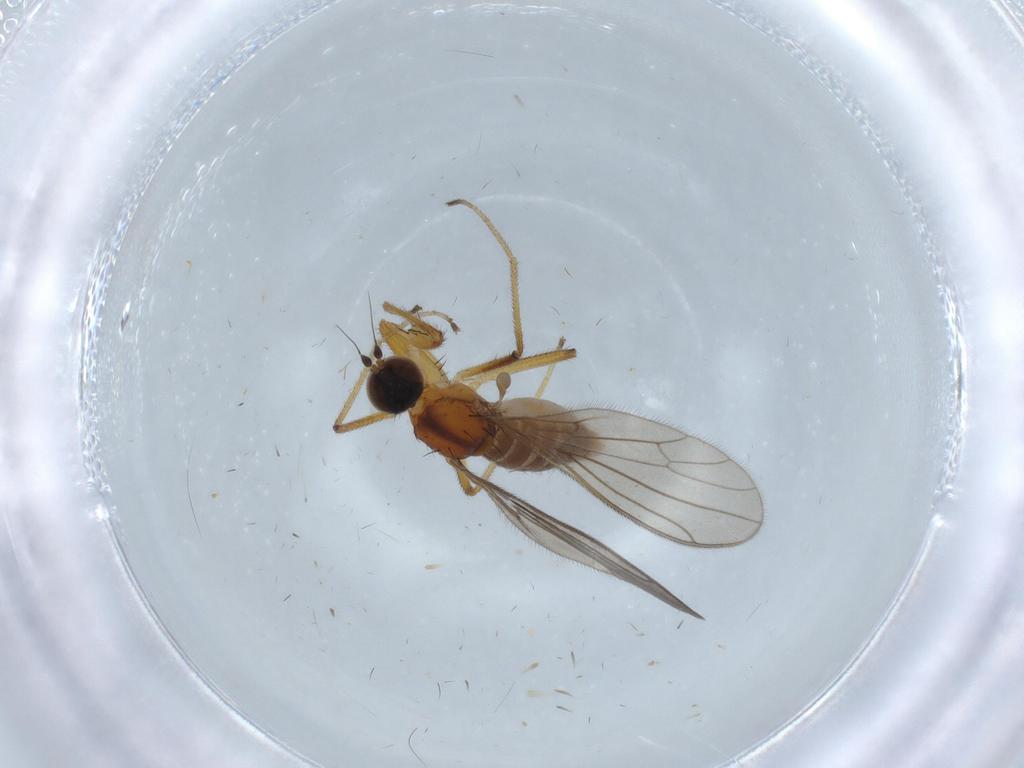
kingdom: Animalia
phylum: Arthropoda
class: Insecta
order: Diptera
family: Empididae
